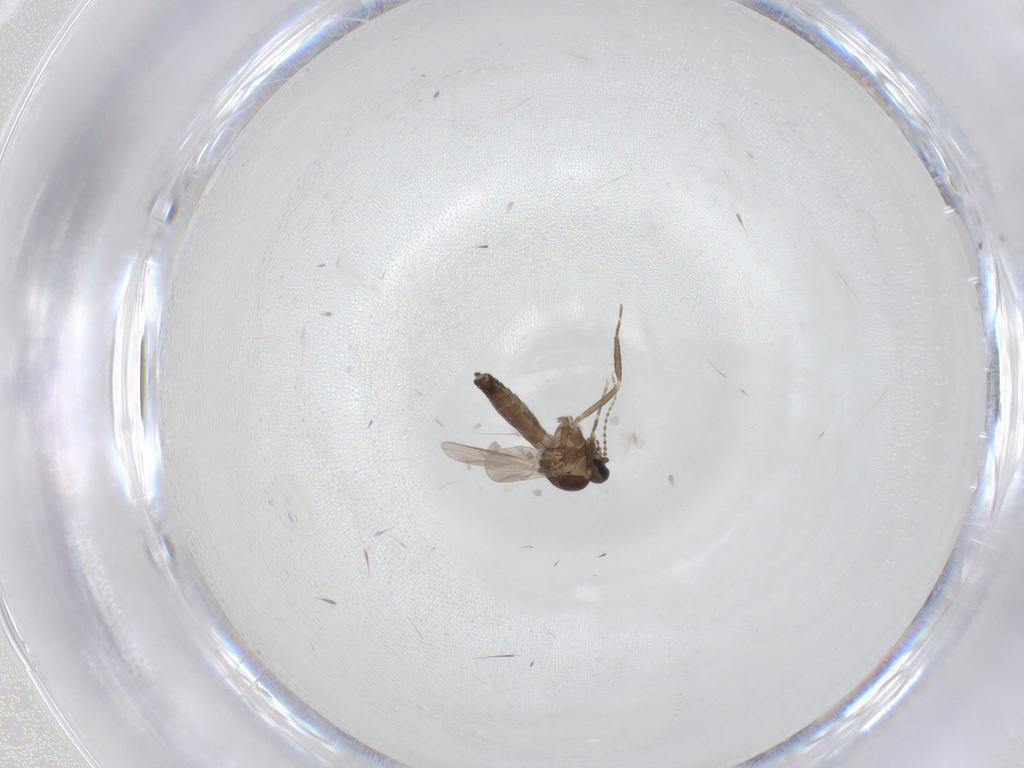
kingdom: Animalia
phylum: Arthropoda
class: Insecta
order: Diptera
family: Ceratopogonidae
